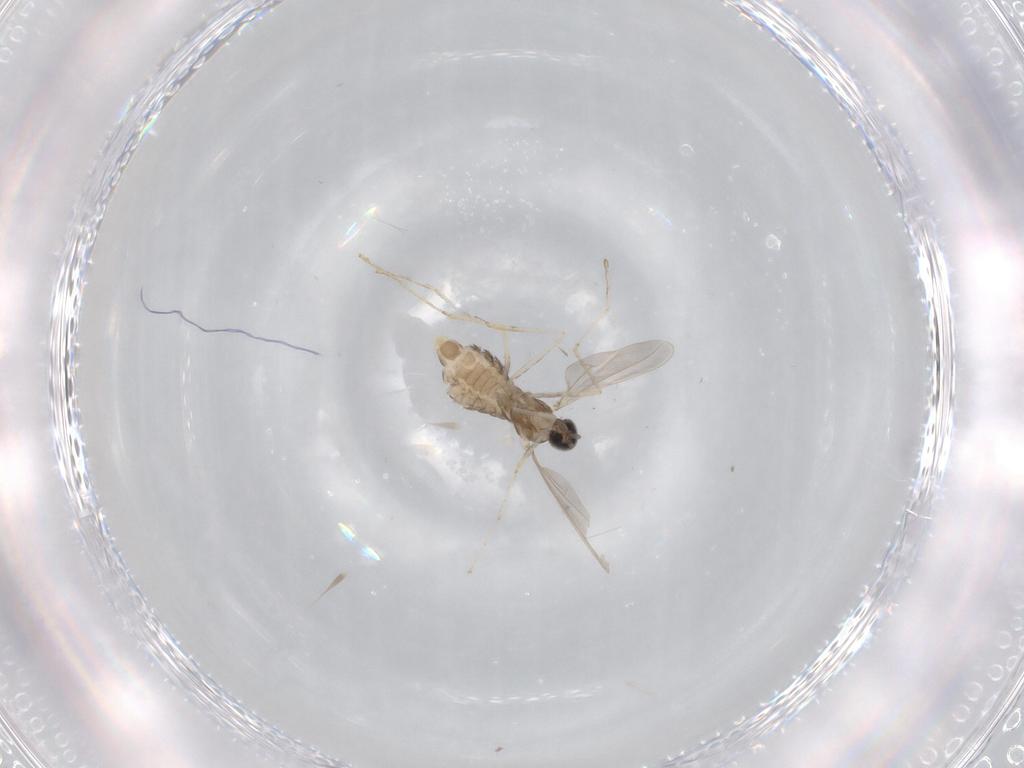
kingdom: Animalia
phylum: Arthropoda
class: Insecta
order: Diptera
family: Cecidomyiidae
